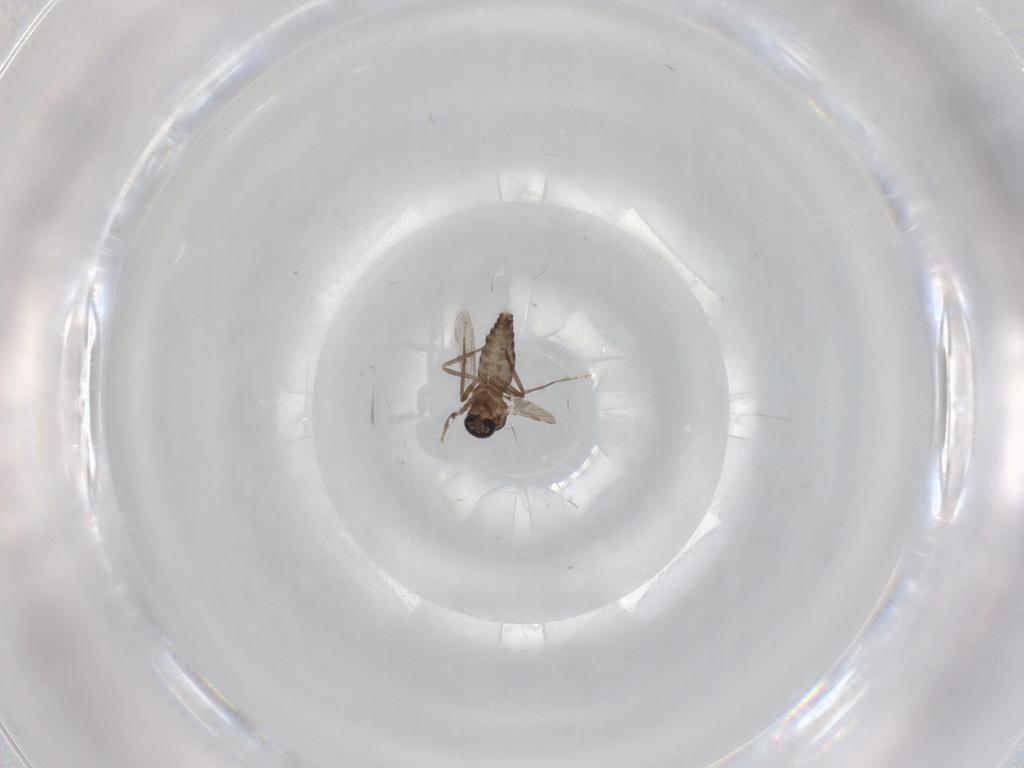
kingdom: Animalia
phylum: Arthropoda
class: Insecta
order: Diptera
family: Ceratopogonidae
